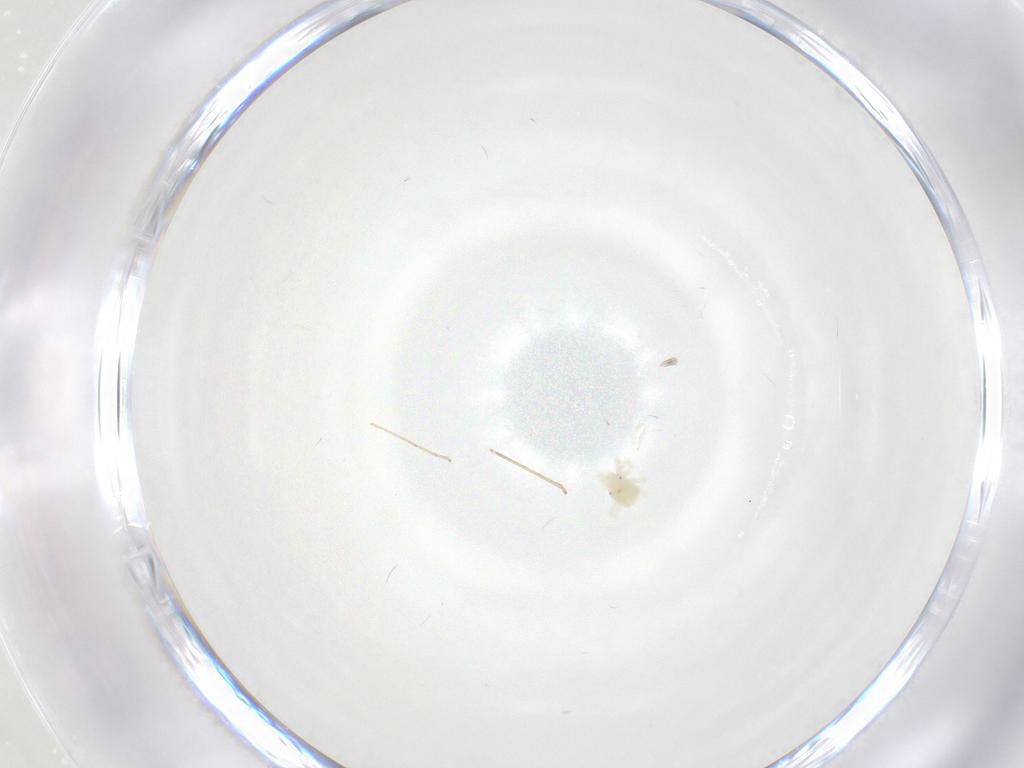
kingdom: Animalia
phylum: Arthropoda
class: Arachnida
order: Trombidiformes
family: Anystidae
